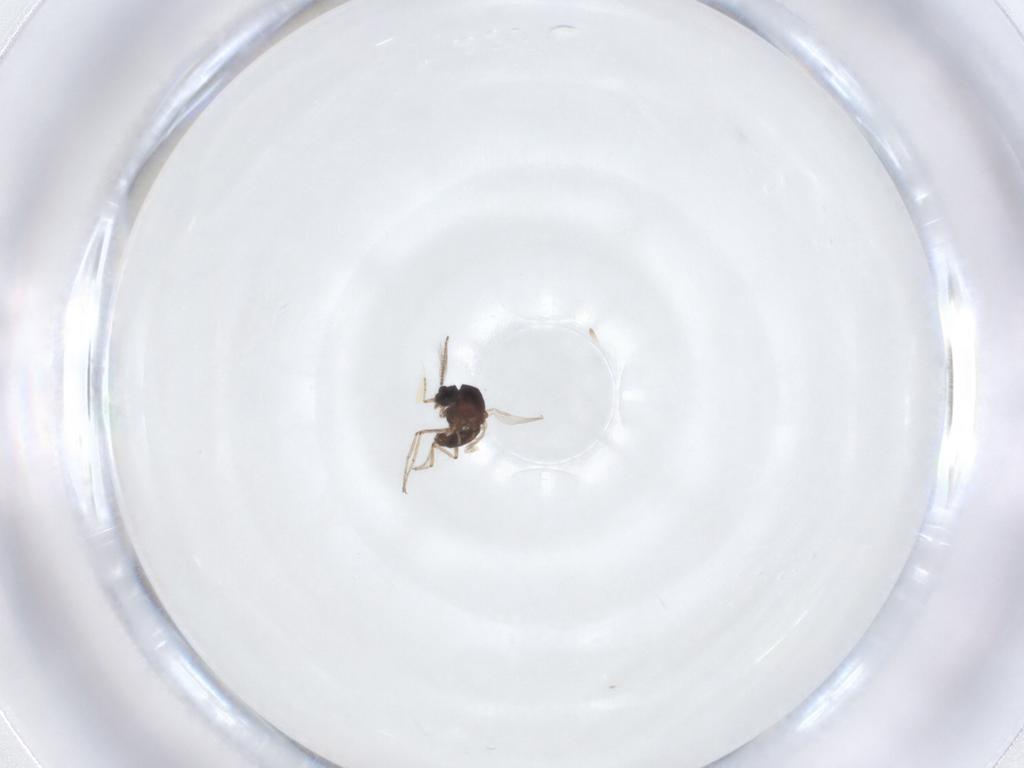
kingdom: Animalia
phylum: Arthropoda
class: Insecta
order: Diptera
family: Ceratopogonidae
